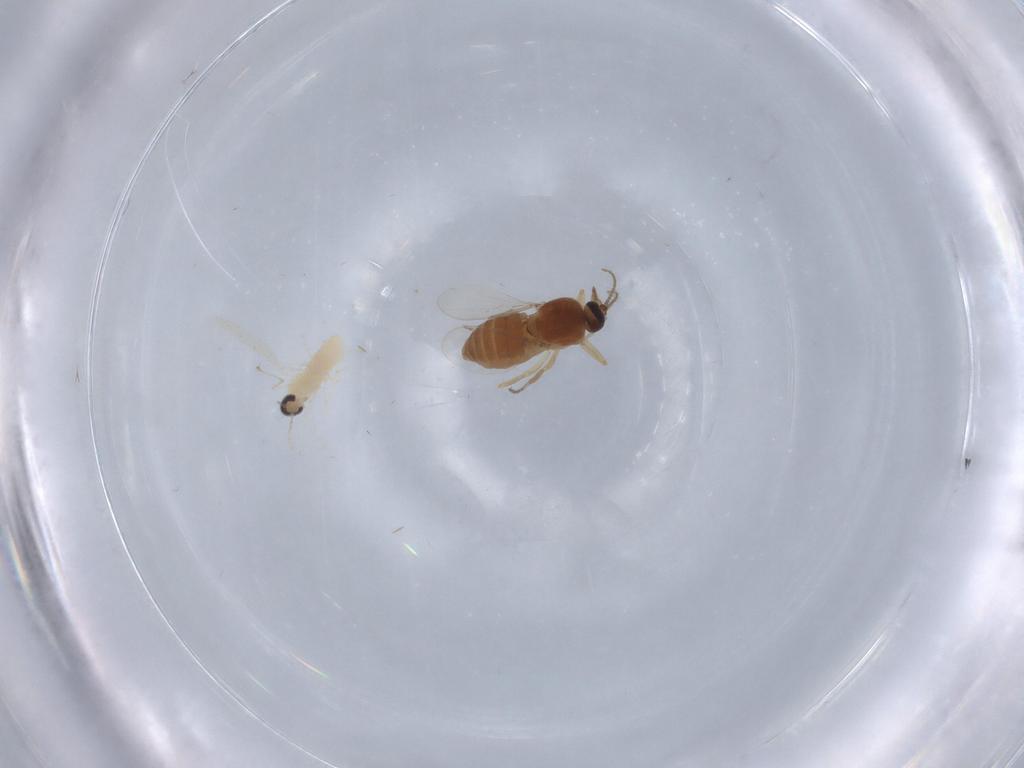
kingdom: Animalia
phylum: Arthropoda
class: Insecta
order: Diptera
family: Ceratopogonidae
